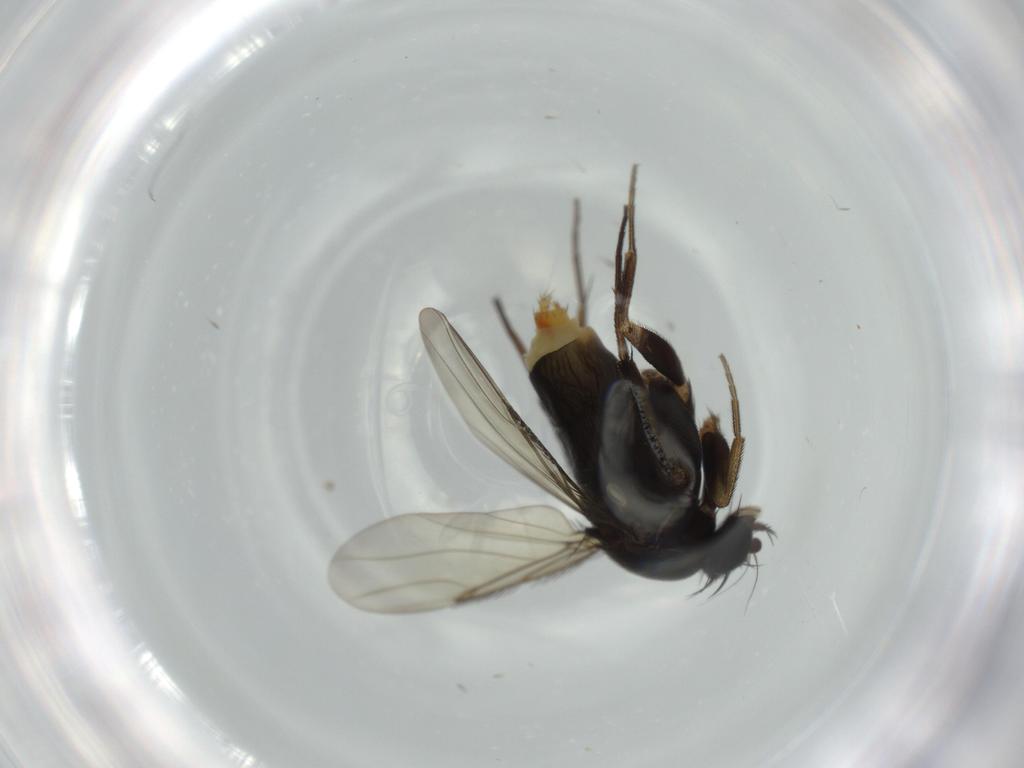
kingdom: Animalia
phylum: Arthropoda
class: Insecta
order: Diptera
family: Phoridae
